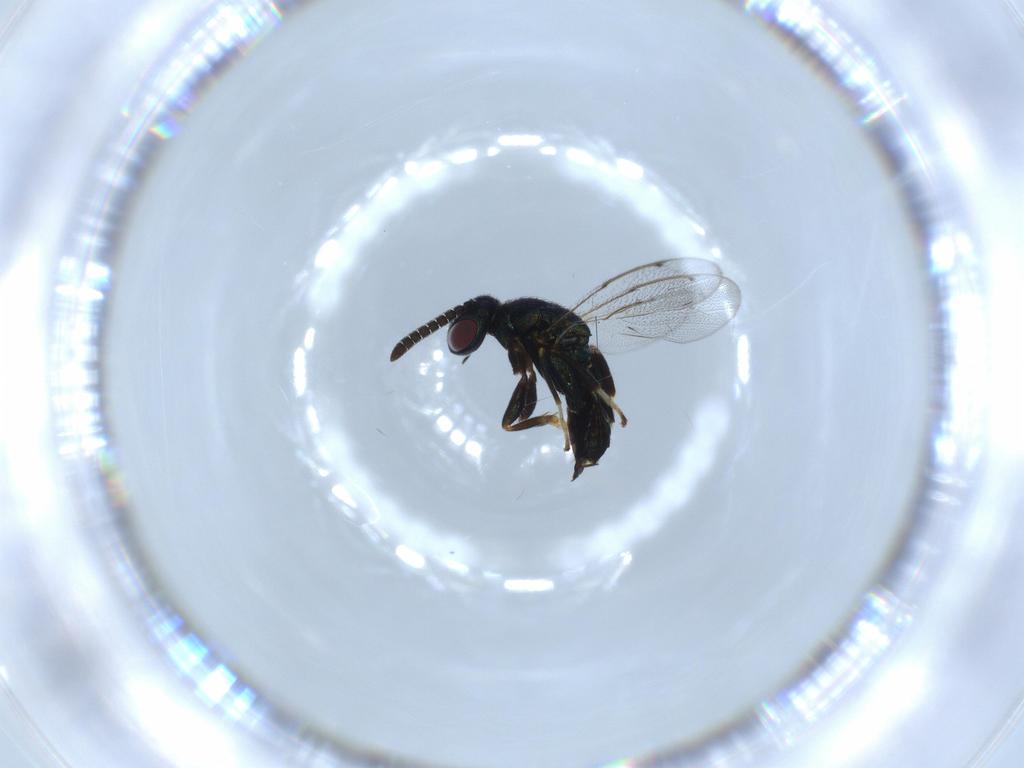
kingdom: Animalia
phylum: Arthropoda
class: Insecta
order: Hymenoptera
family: Torymidae
